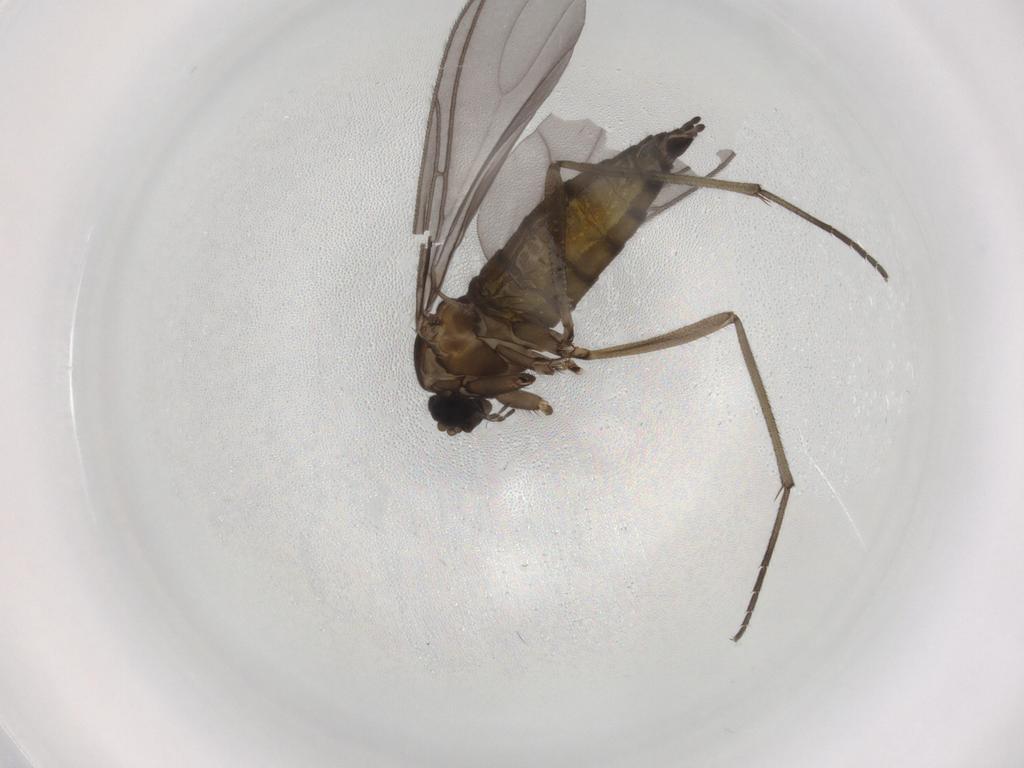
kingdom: Animalia
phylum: Arthropoda
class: Insecta
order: Diptera
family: Sciaridae
